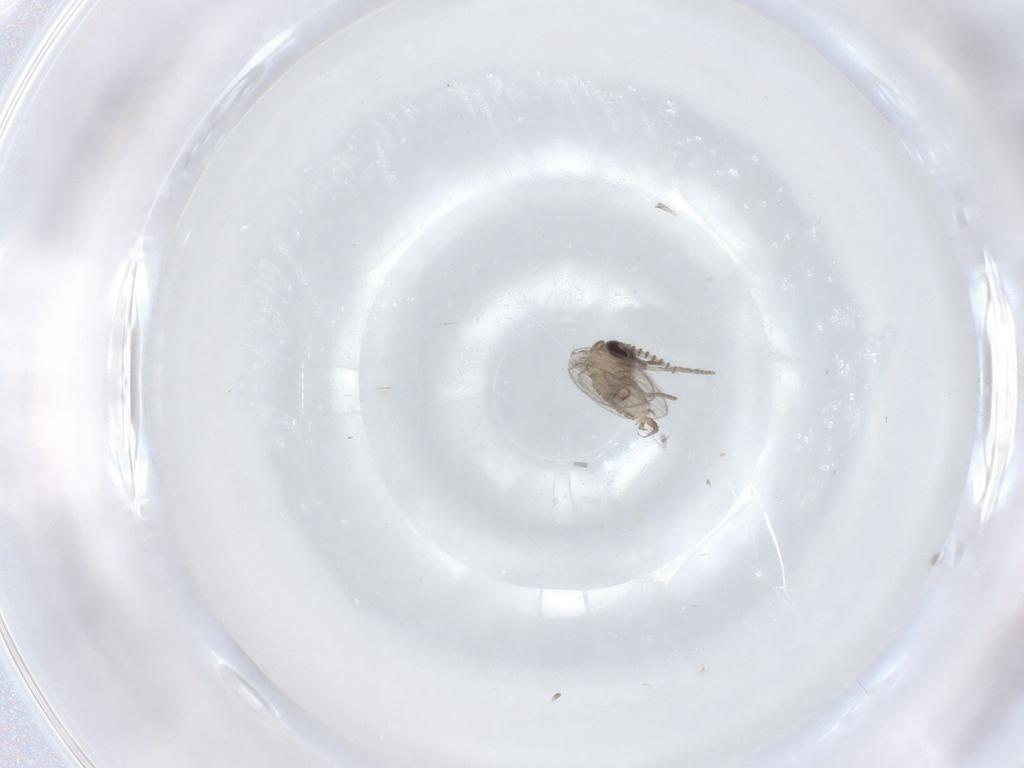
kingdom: Animalia
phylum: Arthropoda
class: Insecta
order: Diptera
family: Psychodidae
